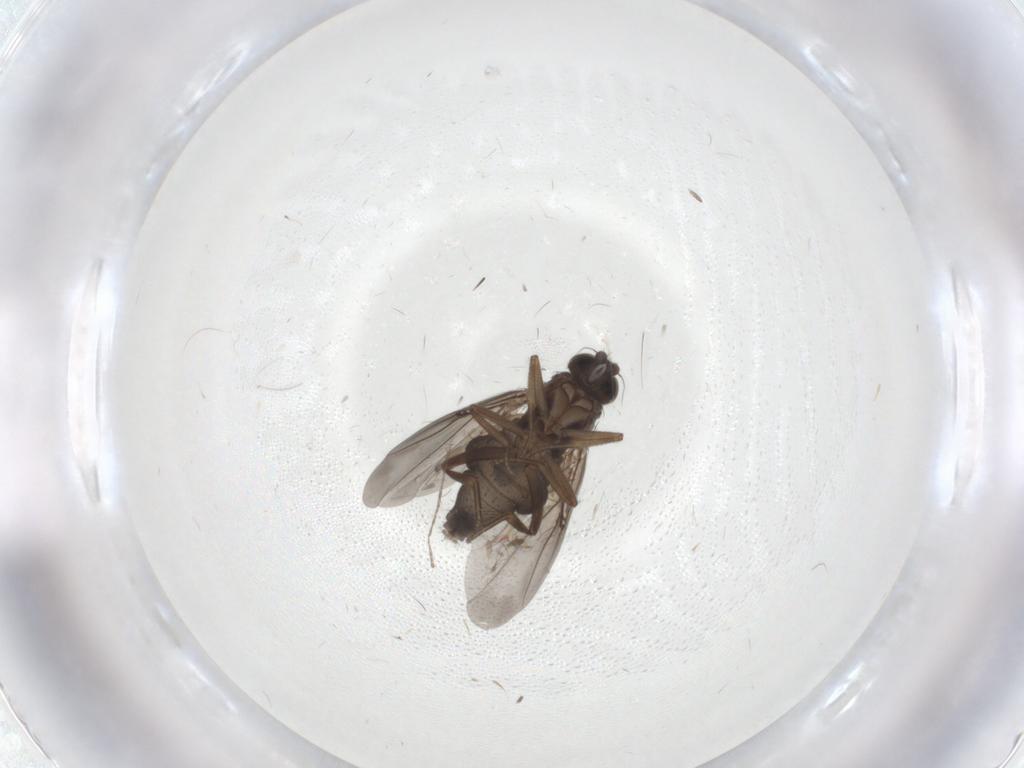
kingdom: Animalia
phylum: Arthropoda
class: Insecta
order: Diptera
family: Phoridae
